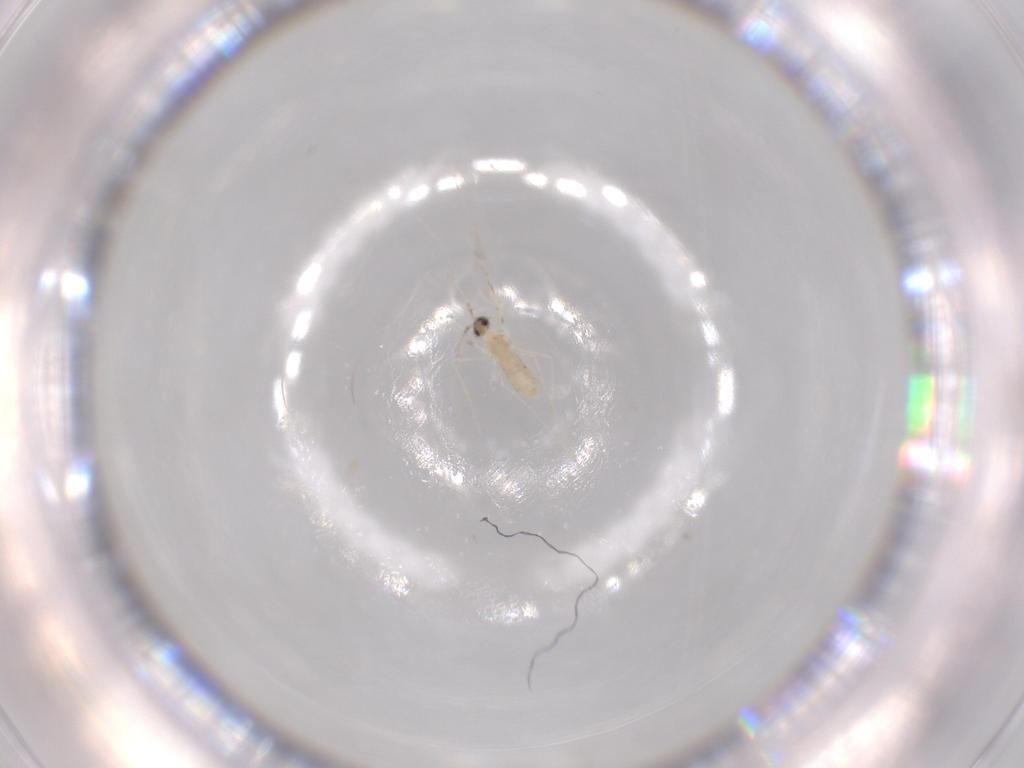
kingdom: Animalia
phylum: Arthropoda
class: Insecta
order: Diptera
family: Cecidomyiidae
